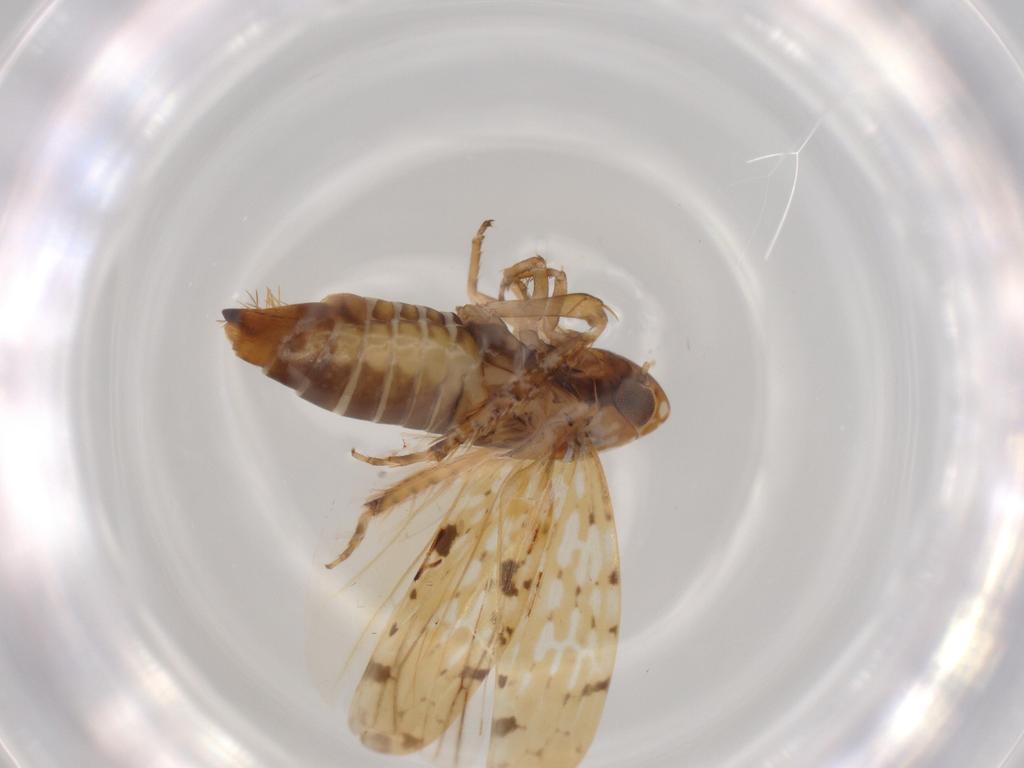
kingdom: Animalia
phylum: Arthropoda
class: Insecta
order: Hemiptera
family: Cicadellidae
